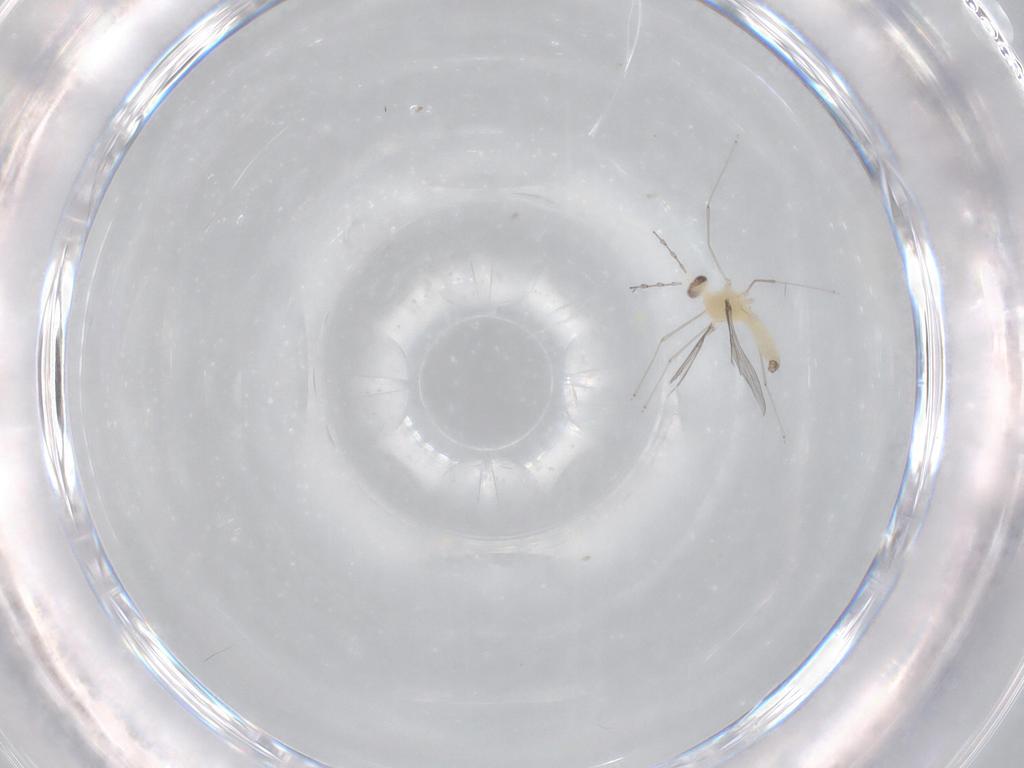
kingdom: Animalia
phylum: Arthropoda
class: Insecta
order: Diptera
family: Cecidomyiidae
